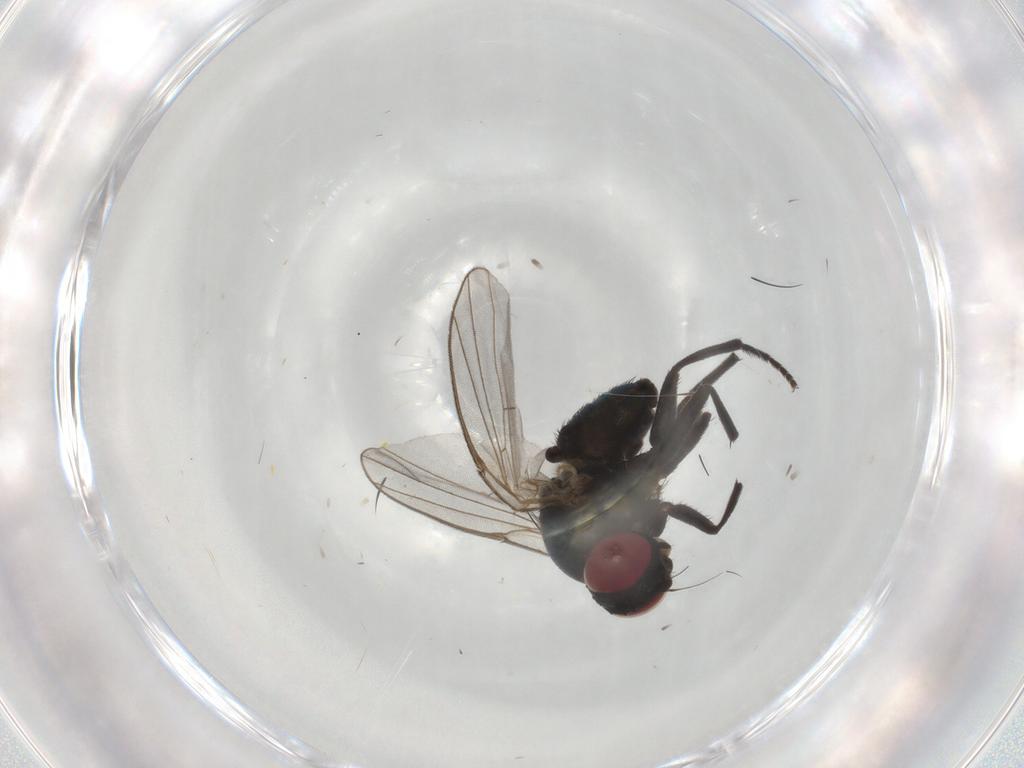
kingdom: Animalia
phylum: Arthropoda
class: Insecta
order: Diptera
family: Agromyzidae
